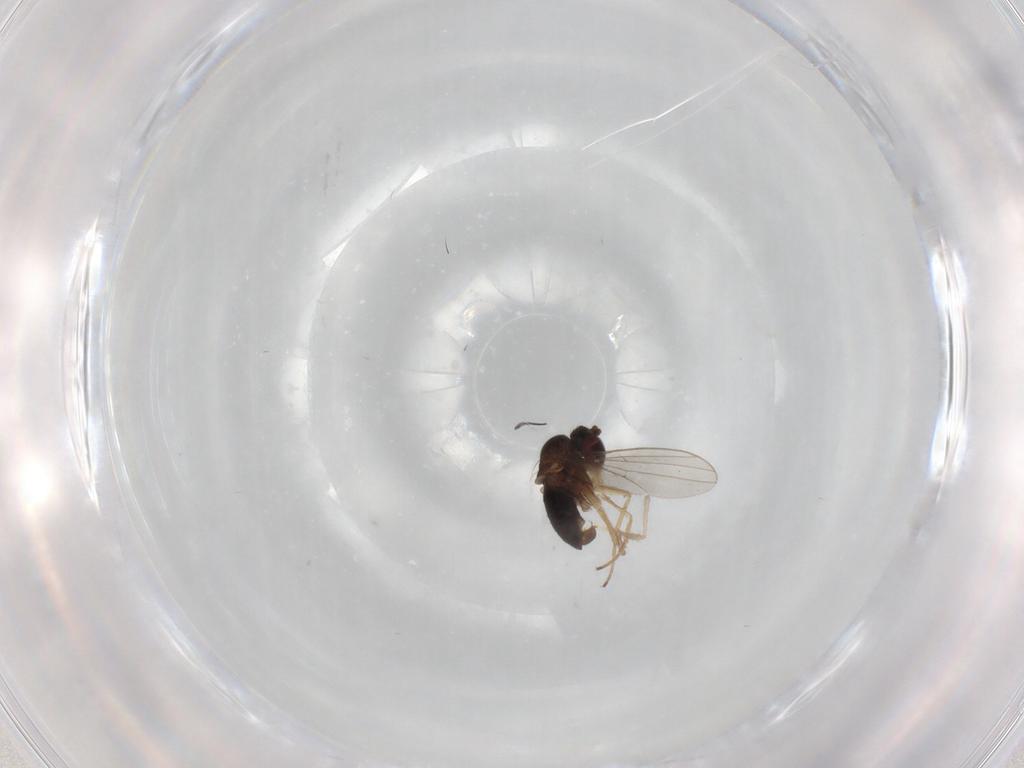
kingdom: Animalia
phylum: Arthropoda
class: Insecta
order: Diptera
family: Dolichopodidae
